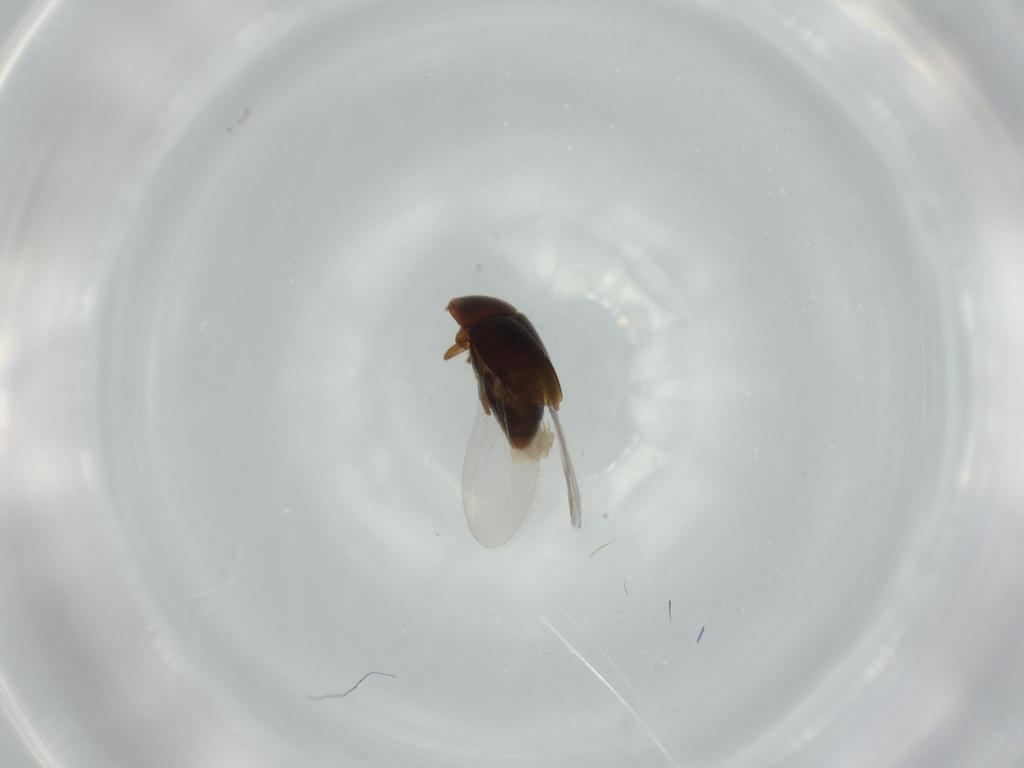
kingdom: Animalia
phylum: Arthropoda
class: Insecta
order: Coleoptera
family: Corylophidae
